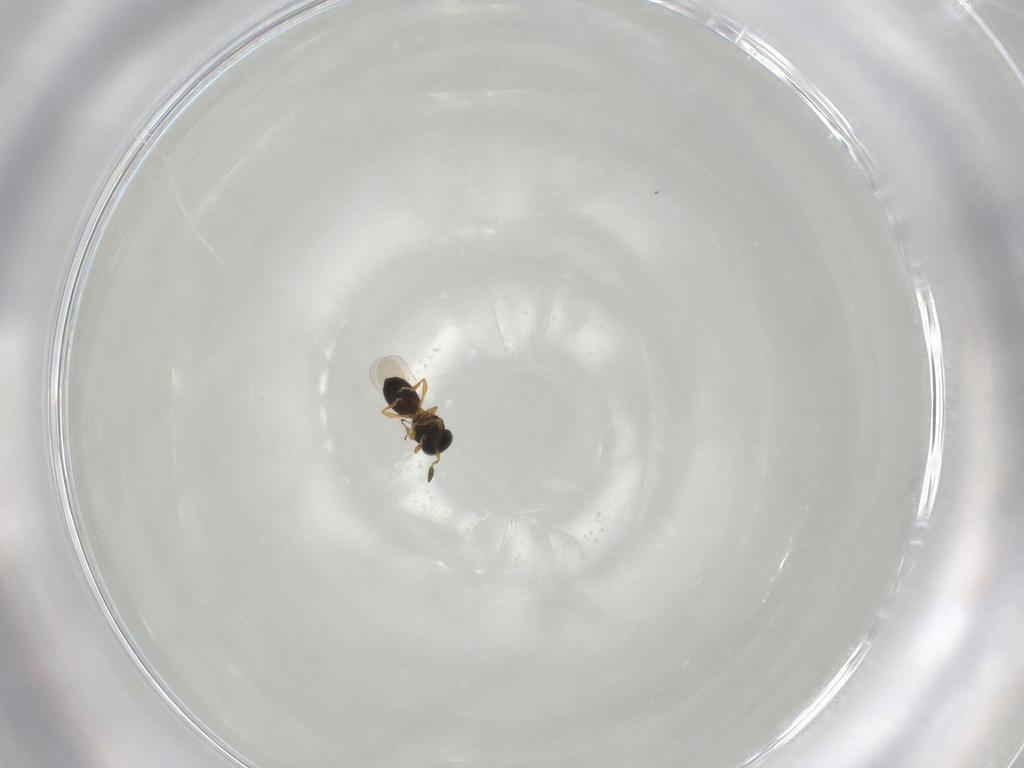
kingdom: Animalia
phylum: Arthropoda
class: Insecta
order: Hymenoptera
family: Platygastridae
